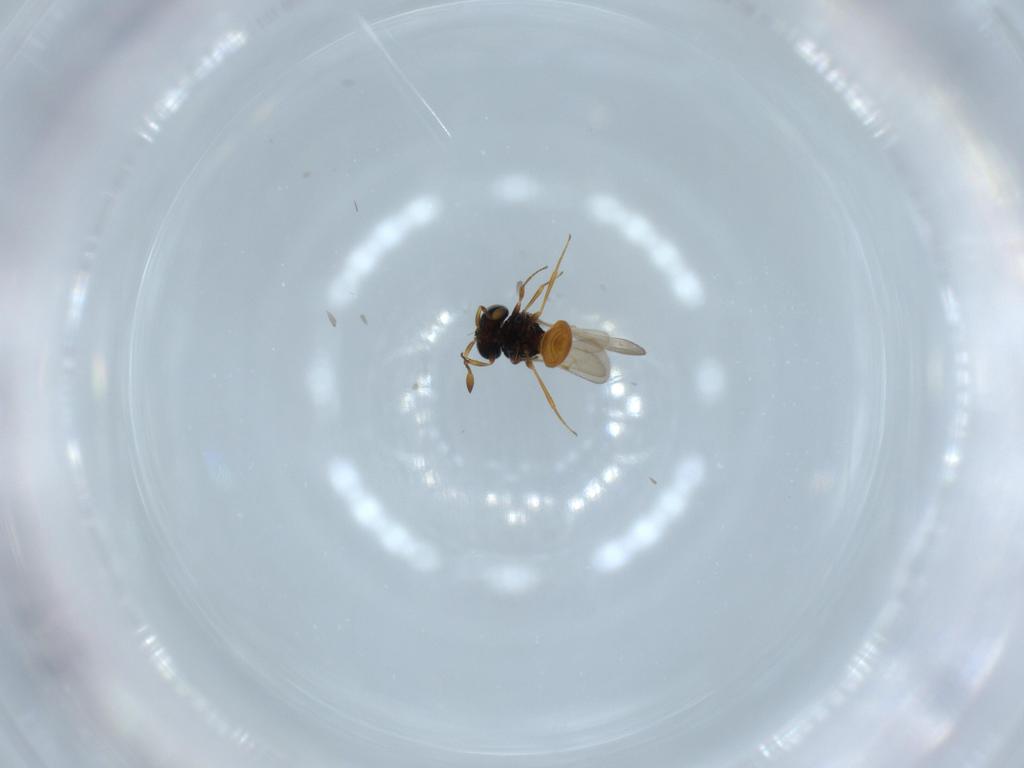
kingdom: Animalia
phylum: Arthropoda
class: Insecta
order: Hymenoptera
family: Scelionidae
